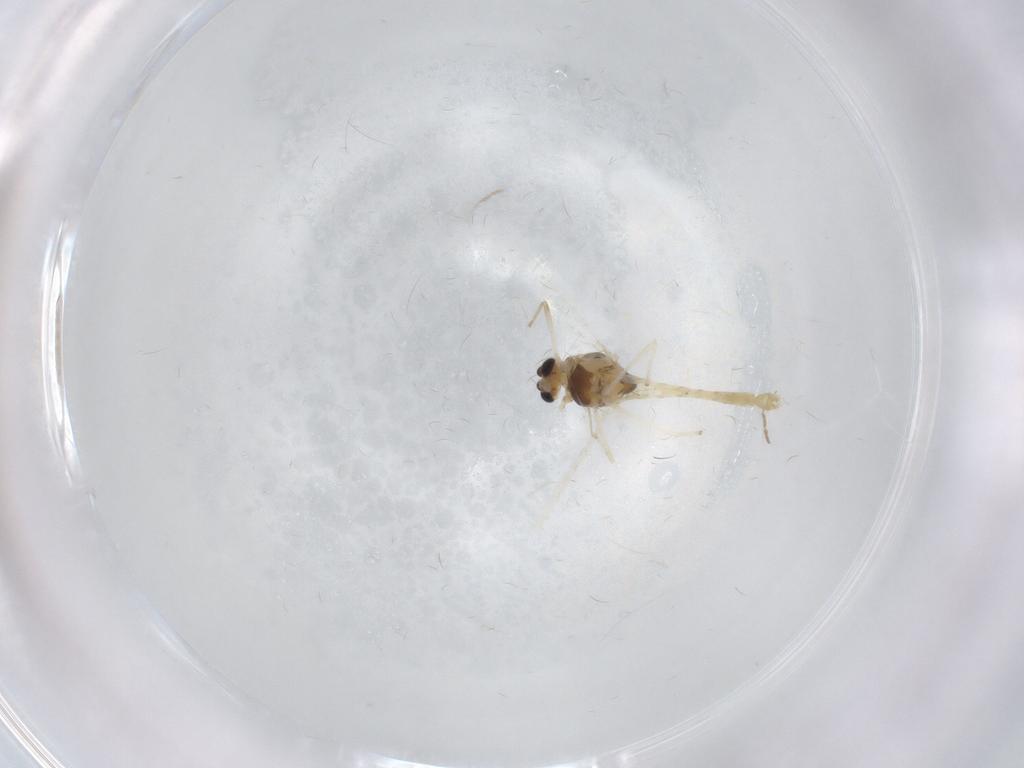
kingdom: Animalia
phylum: Arthropoda
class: Insecta
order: Diptera
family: Chironomidae
